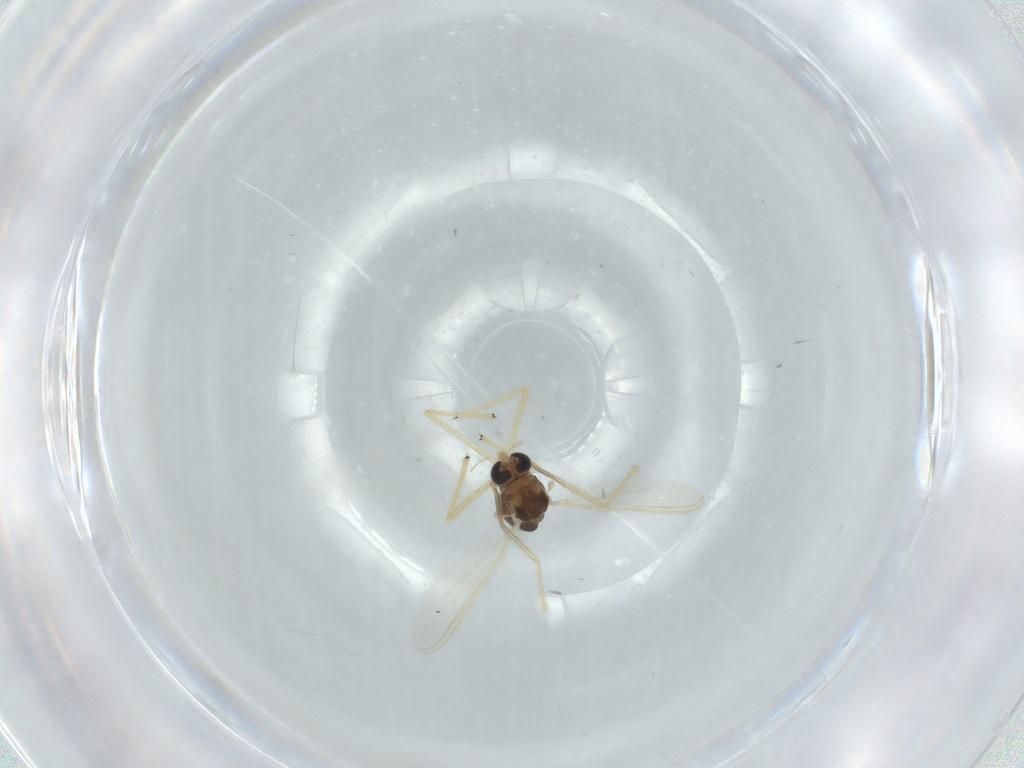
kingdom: Animalia
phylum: Arthropoda
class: Insecta
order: Diptera
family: Chironomidae
